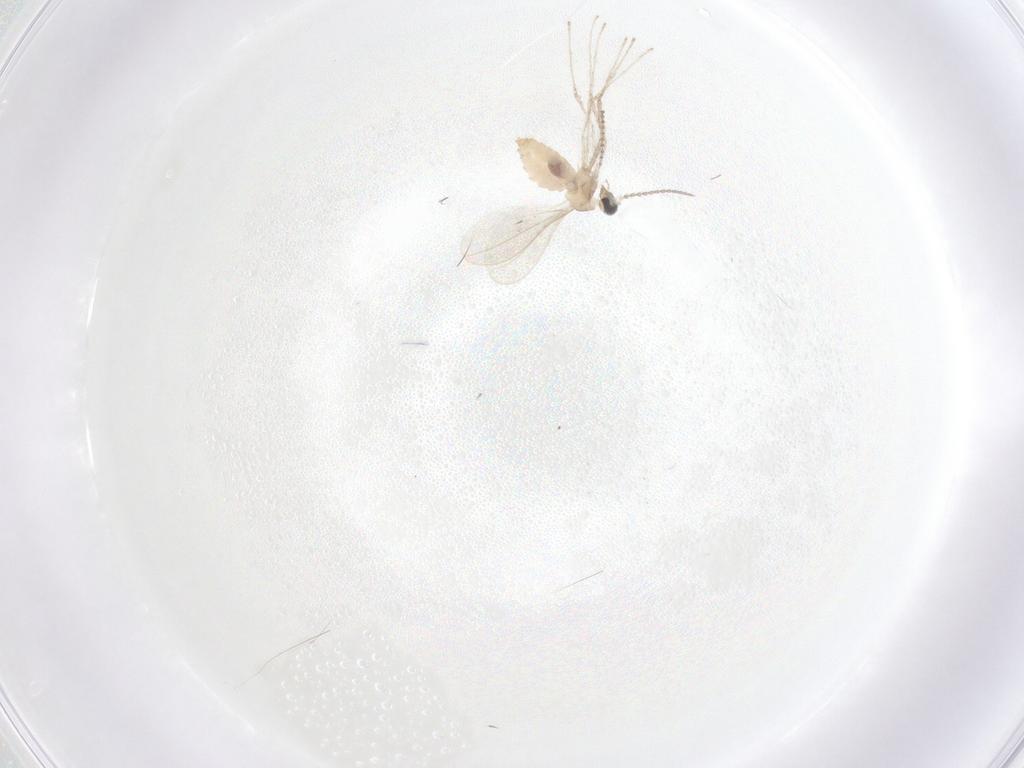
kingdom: Animalia
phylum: Arthropoda
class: Insecta
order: Diptera
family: Cecidomyiidae
